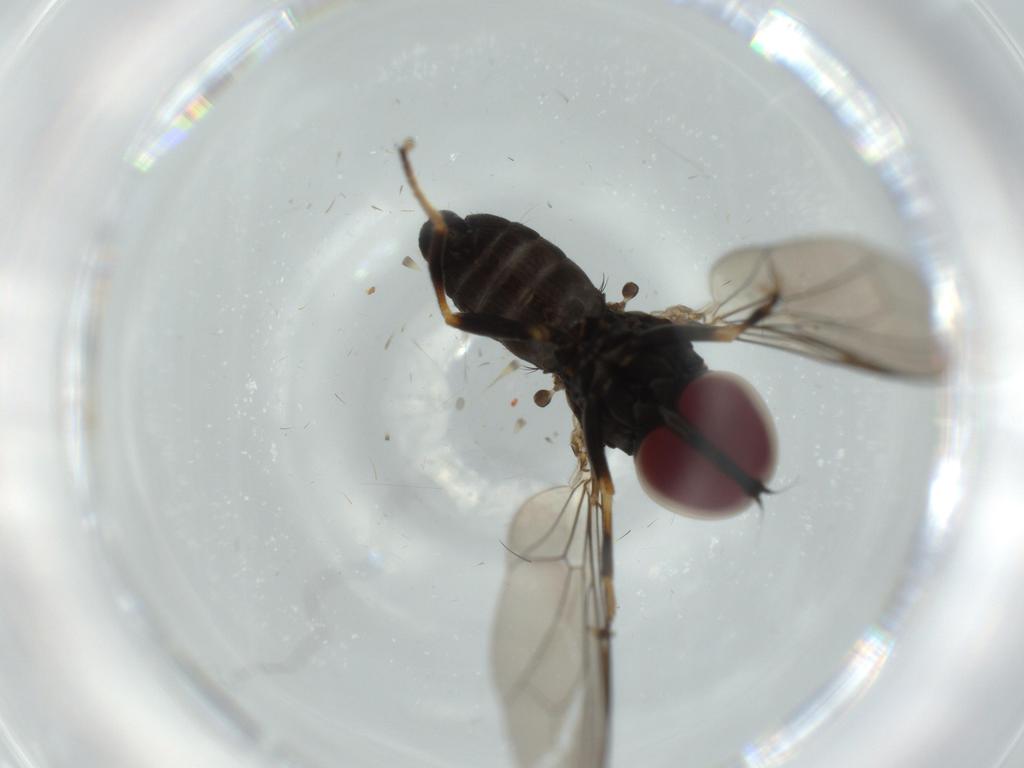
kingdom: Animalia
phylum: Arthropoda
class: Insecta
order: Diptera
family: Pipunculidae
